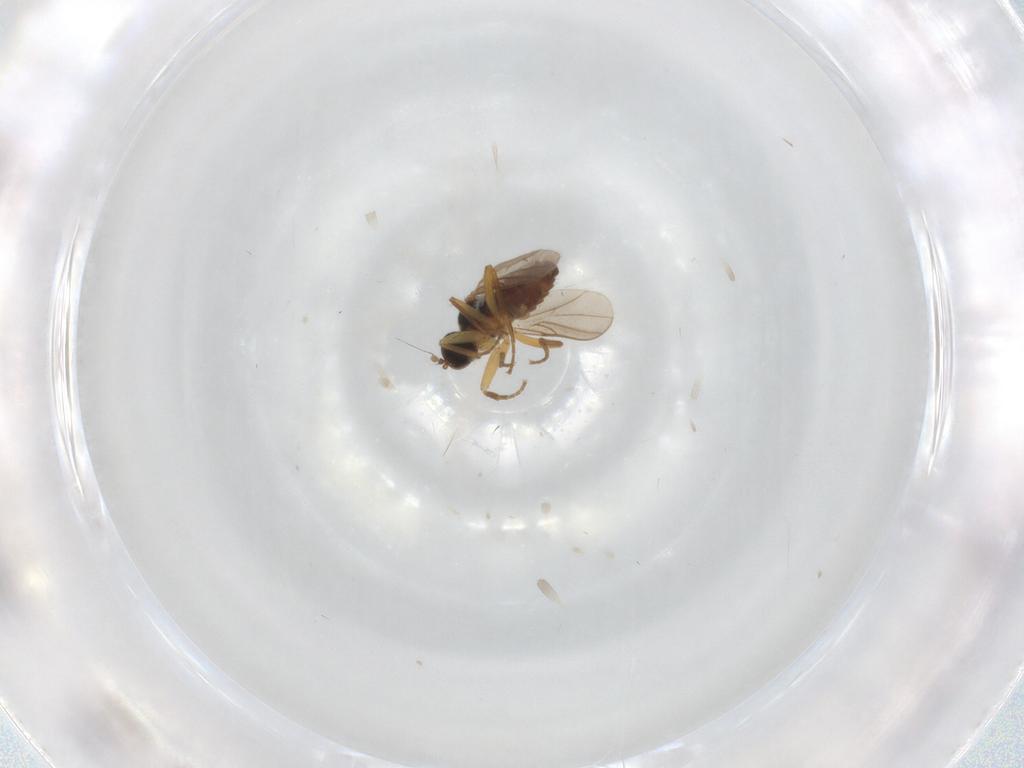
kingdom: Animalia
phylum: Arthropoda
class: Insecta
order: Diptera
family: Hybotidae
